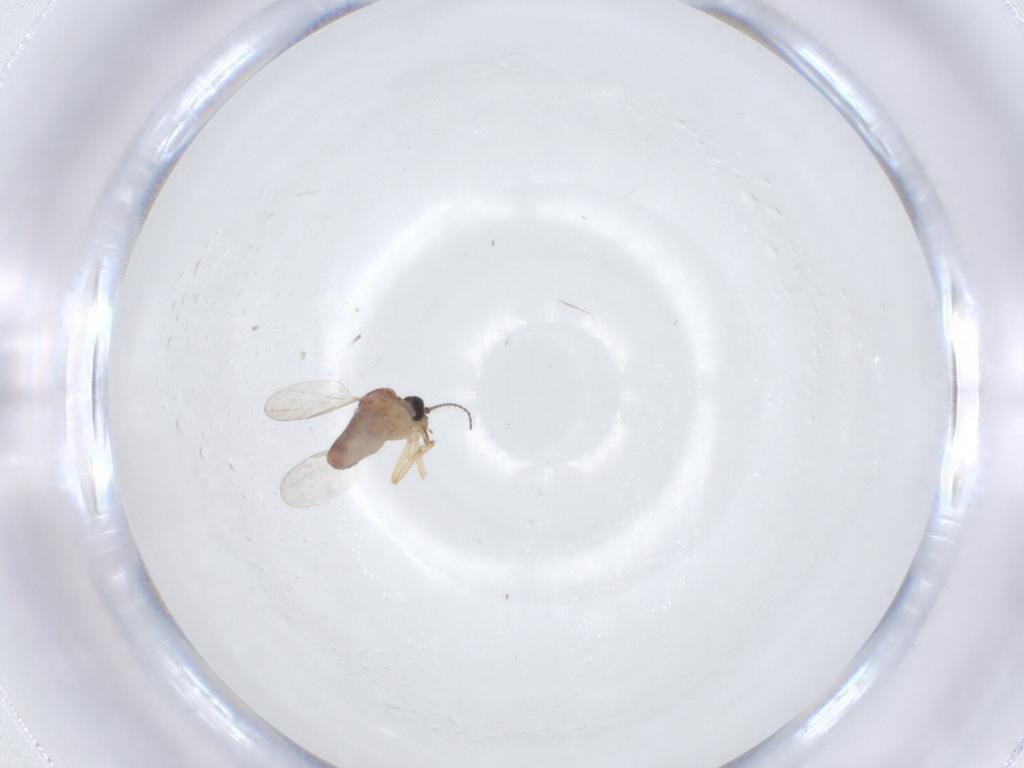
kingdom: Animalia
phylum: Arthropoda
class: Insecta
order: Diptera
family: Ceratopogonidae
